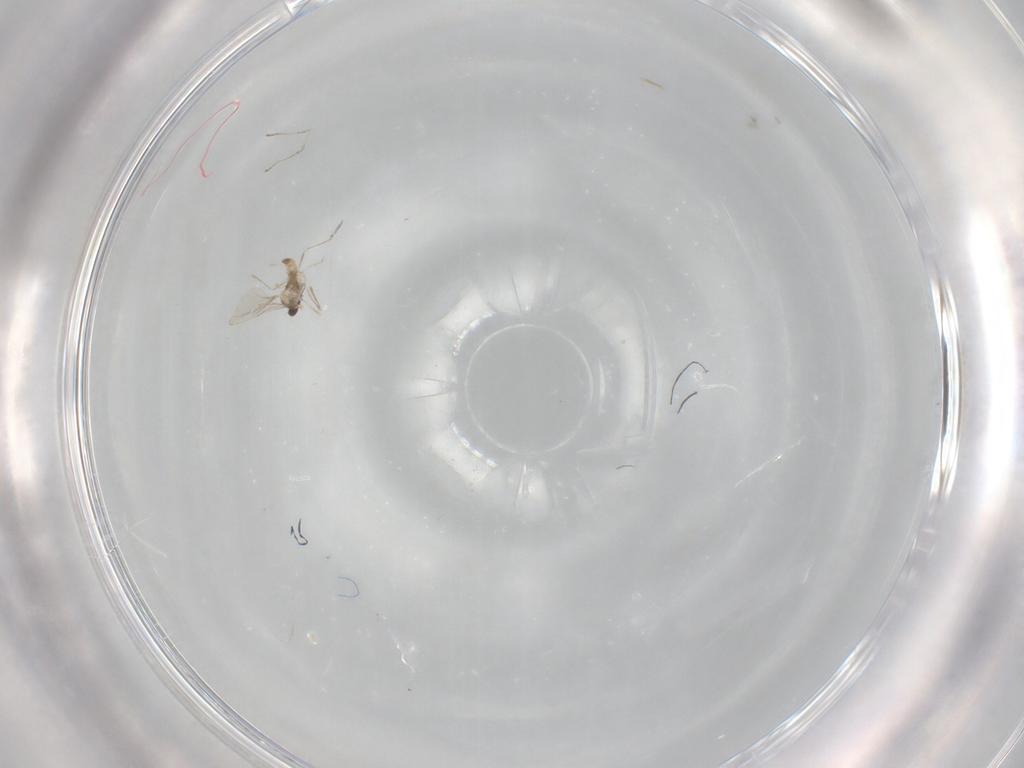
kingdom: Animalia
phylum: Arthropoda
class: Insecta
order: Diptera
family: Cecidomyiidae
